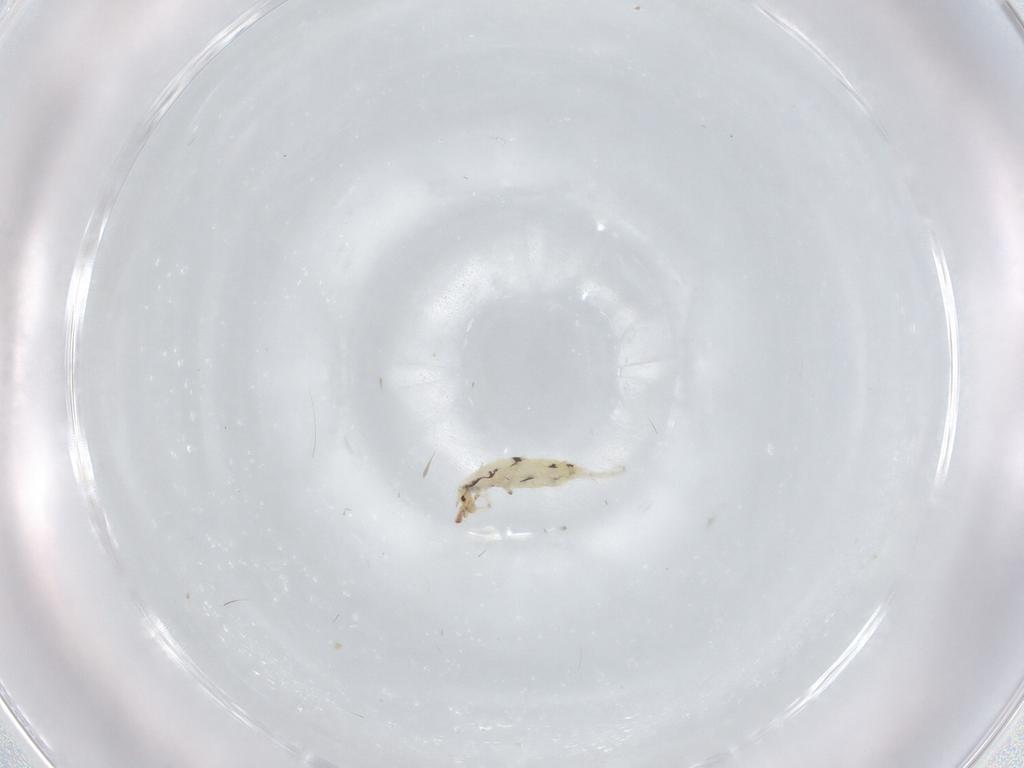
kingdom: Animalia
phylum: Arthropoda
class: Collembola
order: Entomobryomorpha
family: Entomobryidae
